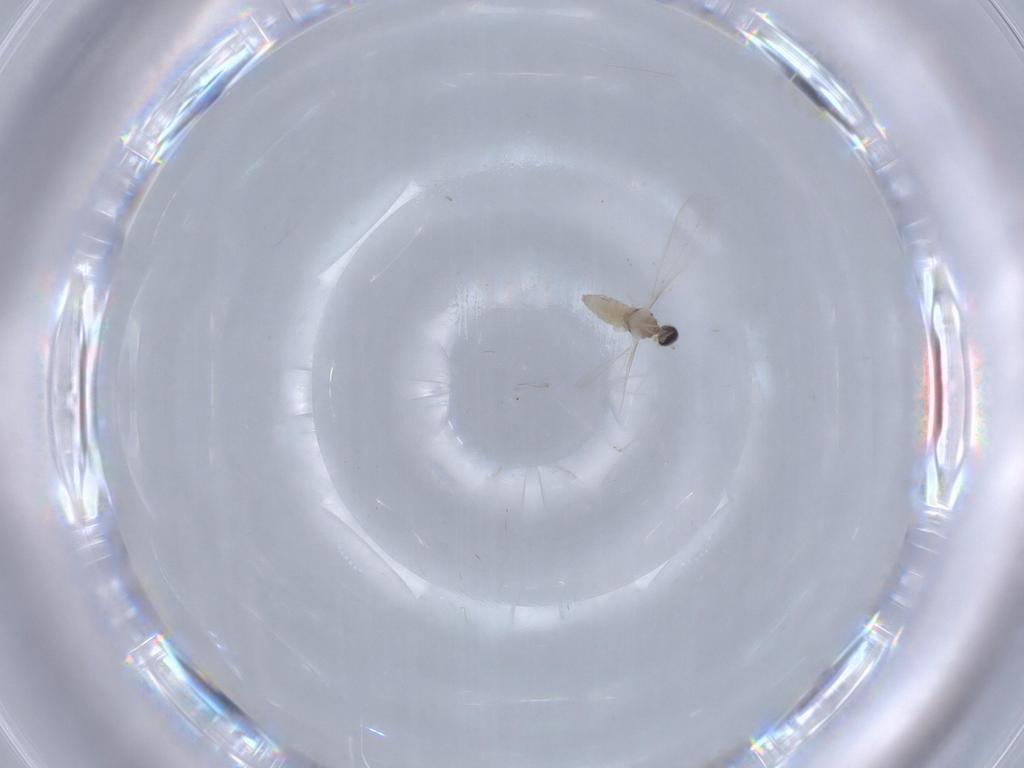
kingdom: Animalia
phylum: Arthropoda
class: Insecta
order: Diptera
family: Cecidomyiidae
